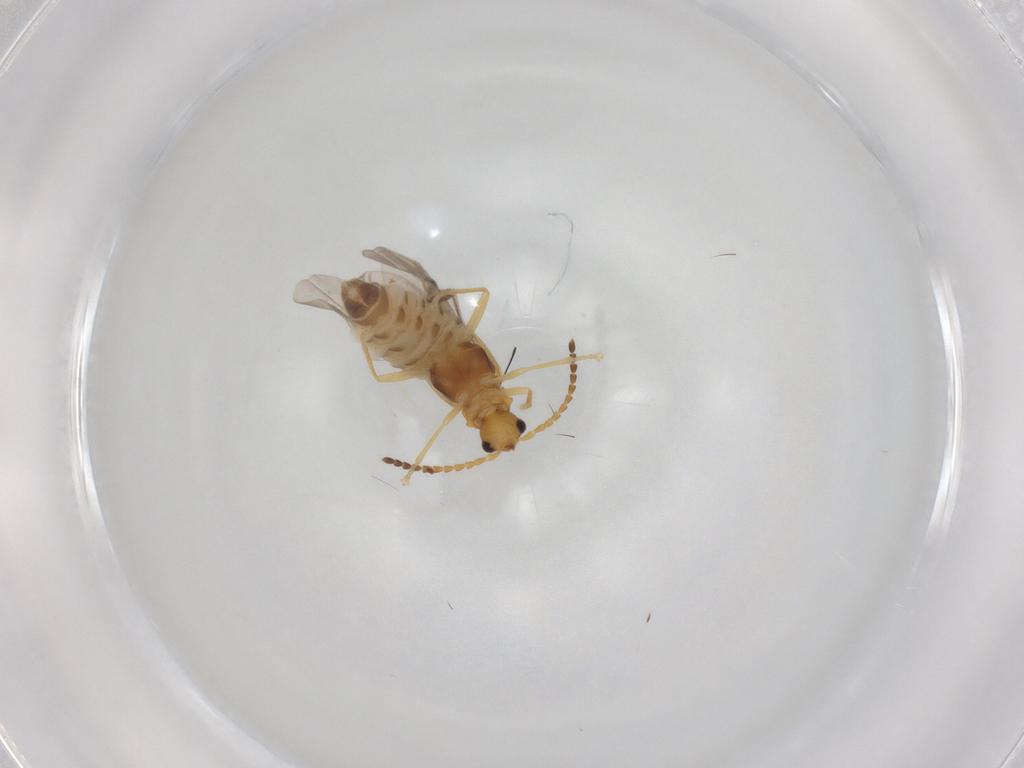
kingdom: Animalia
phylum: Arthropoda
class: Insecta
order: Coleoptera
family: Cantharidae
